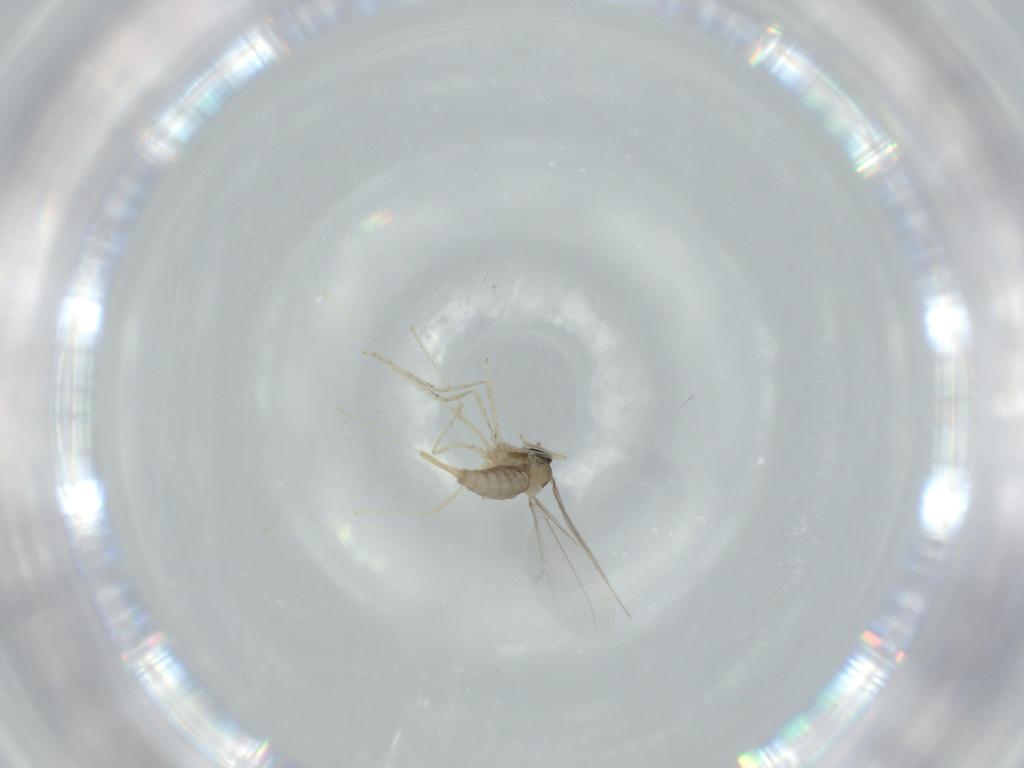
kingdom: Animalia
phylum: Arthropoda
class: Insecta
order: Diptera
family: Cecidomyiidae
